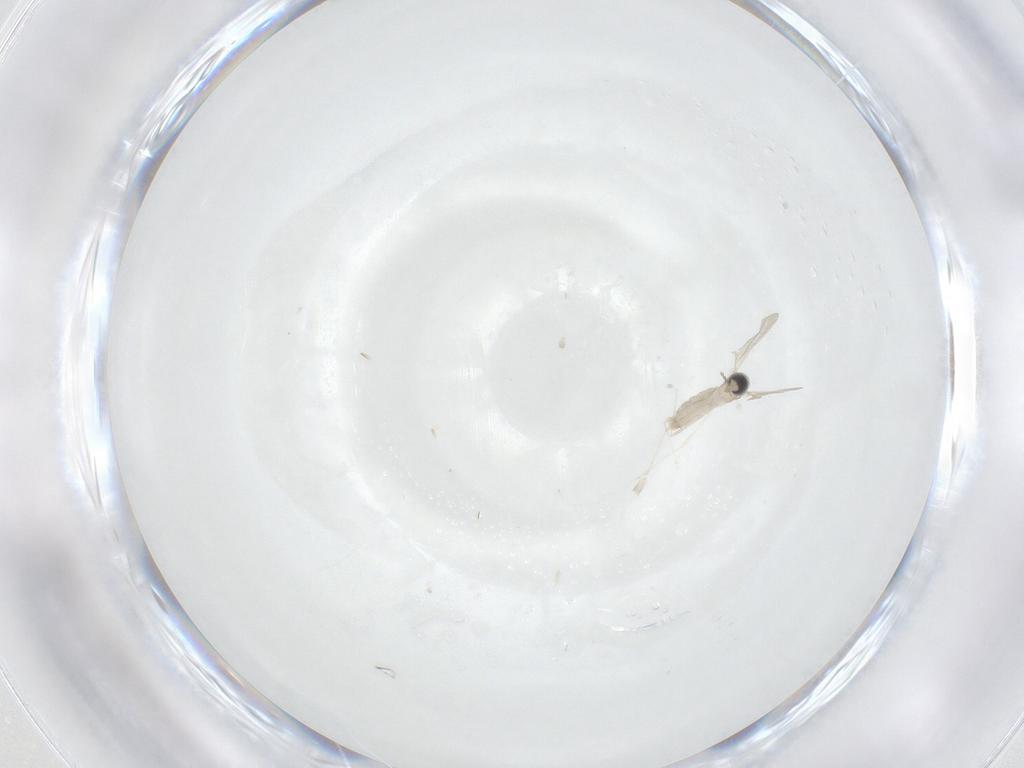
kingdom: Animalia
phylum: Arthropoda
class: Insecta
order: Diptera
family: Cecidomyiidae
